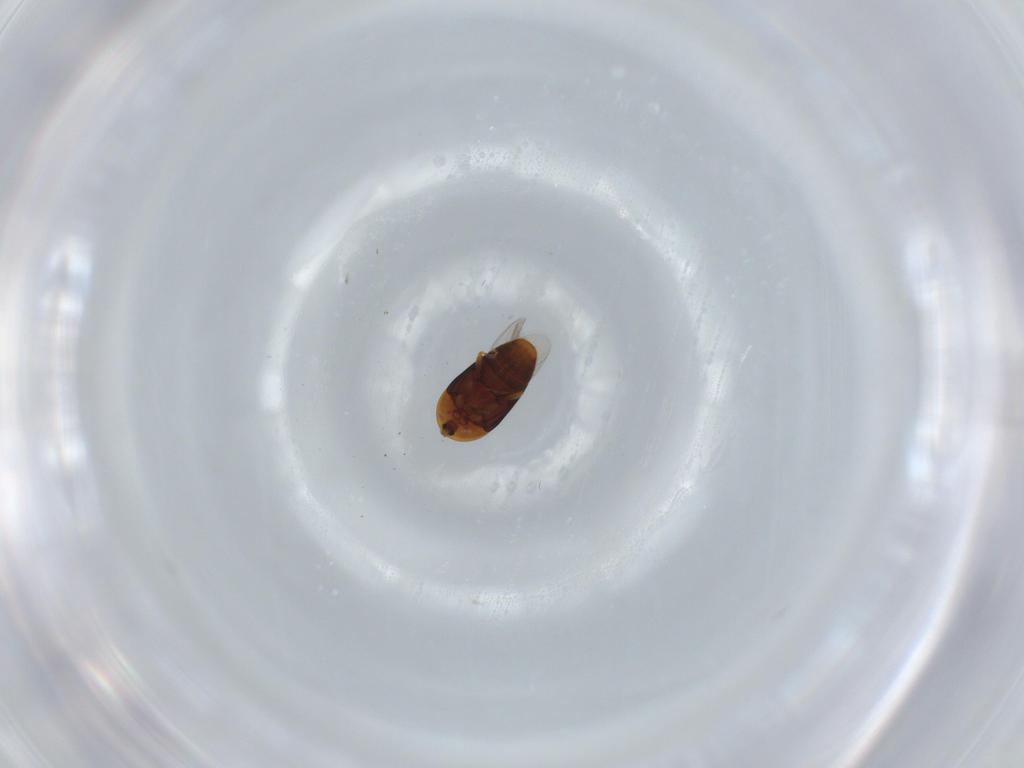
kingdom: Animalia
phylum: Arthropoda
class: Insecta
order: Coleoptera
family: Corylophidae
